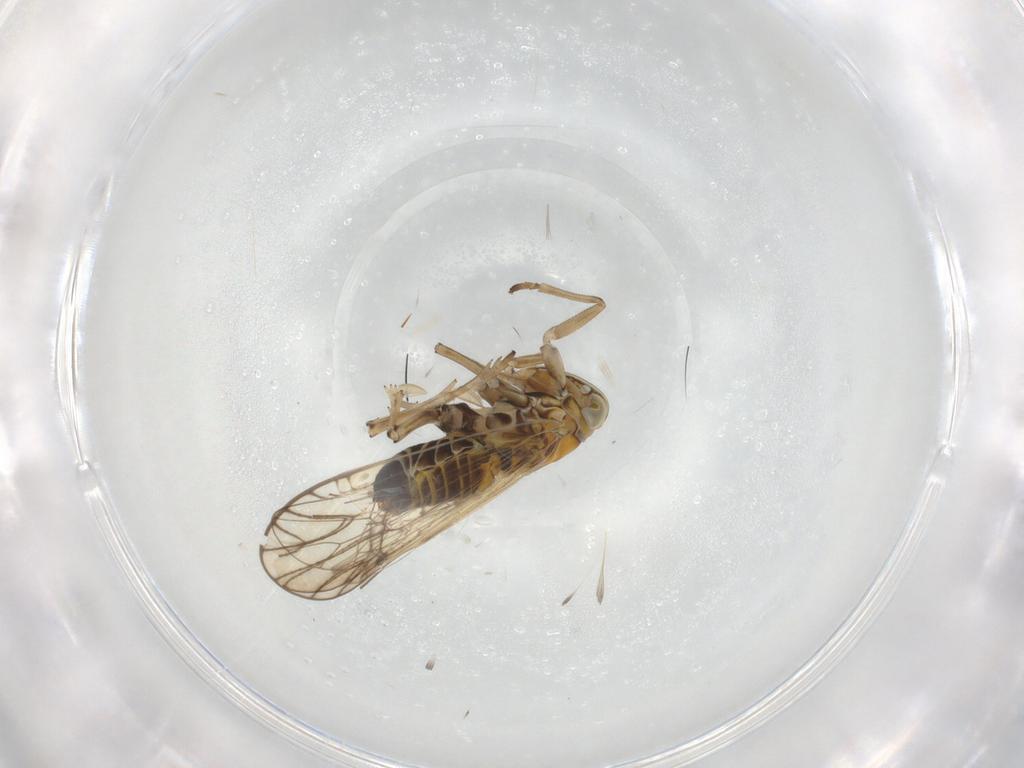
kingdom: Animalia
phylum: Arthropoda
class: Insecta
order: Hemiptera
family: Delphacidae
